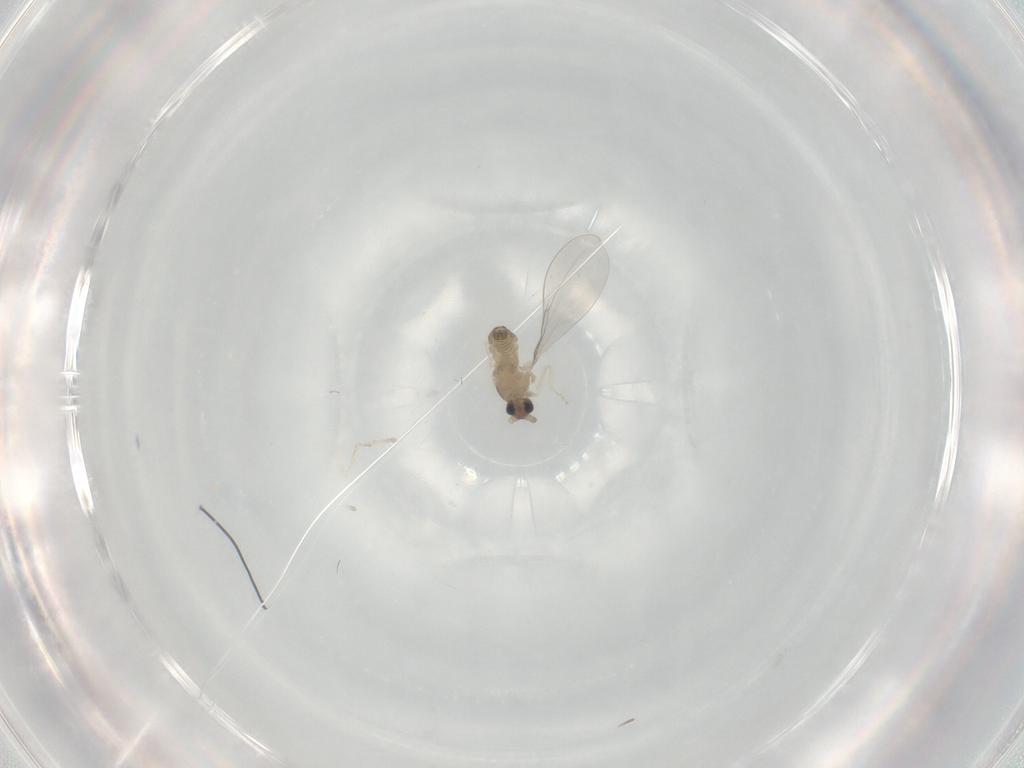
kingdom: Animalia
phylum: Arthropoda
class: Insecta
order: Diptera
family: Cecidomyiidae
